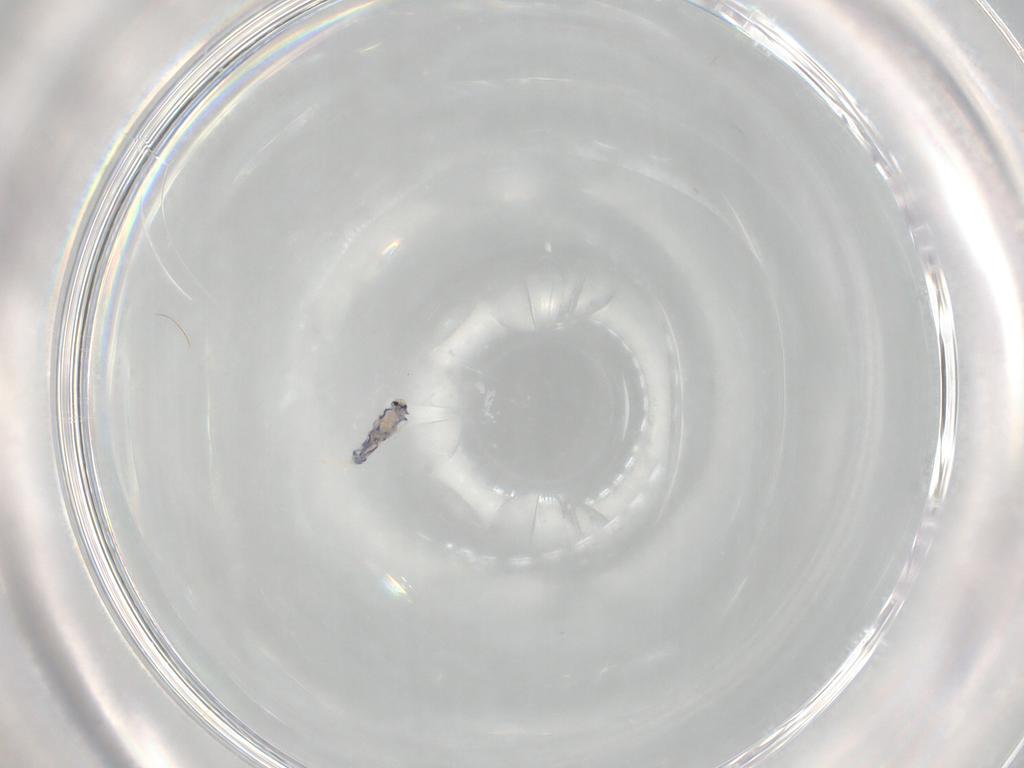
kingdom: Animalia
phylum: Arthropoda
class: Collembola
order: Entomobryomorpha
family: Entomobryidae
